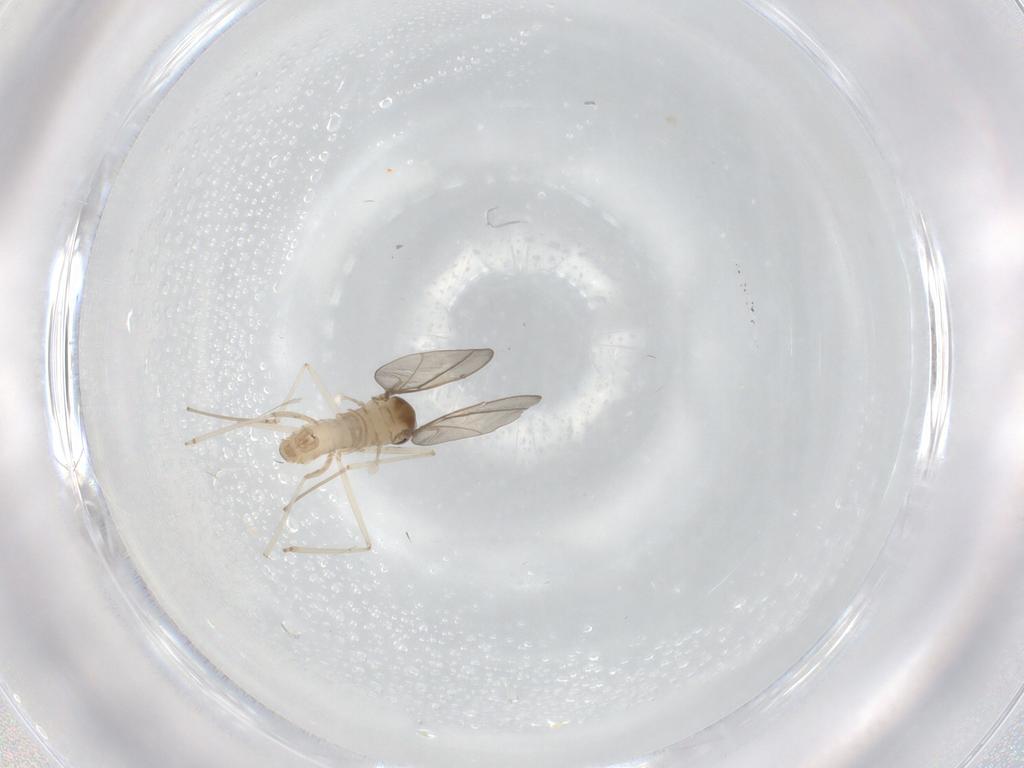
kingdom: Animalia
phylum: Arthropoda
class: Insecta
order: Diptera
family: Cecidomyiidae
